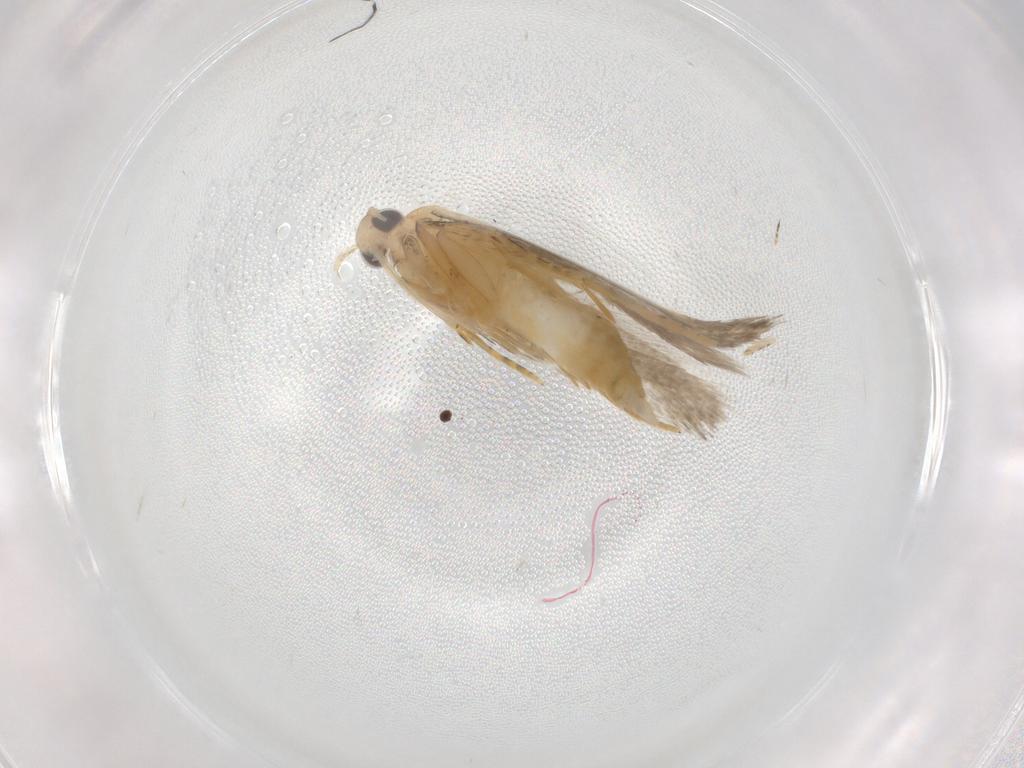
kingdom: Animalia
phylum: Arthropoda
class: Insecta
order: Lepidoptera
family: Autostichidae
